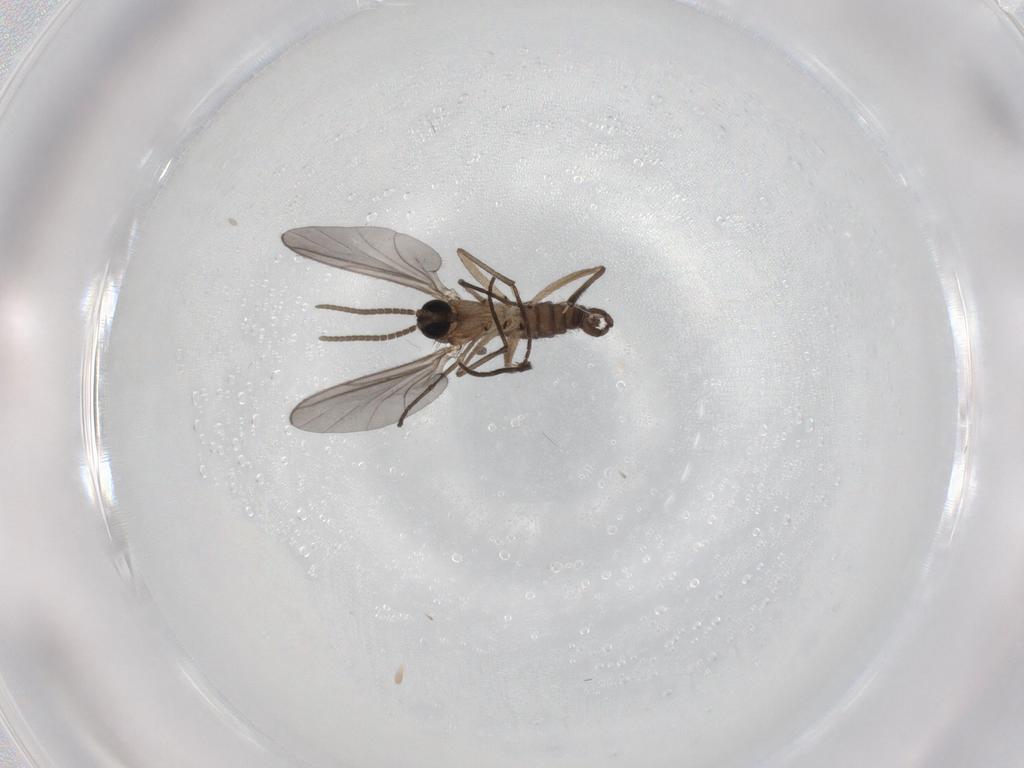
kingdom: Animalia
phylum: Arthropoda
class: Insecta
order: Diptera
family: Sciaridae
